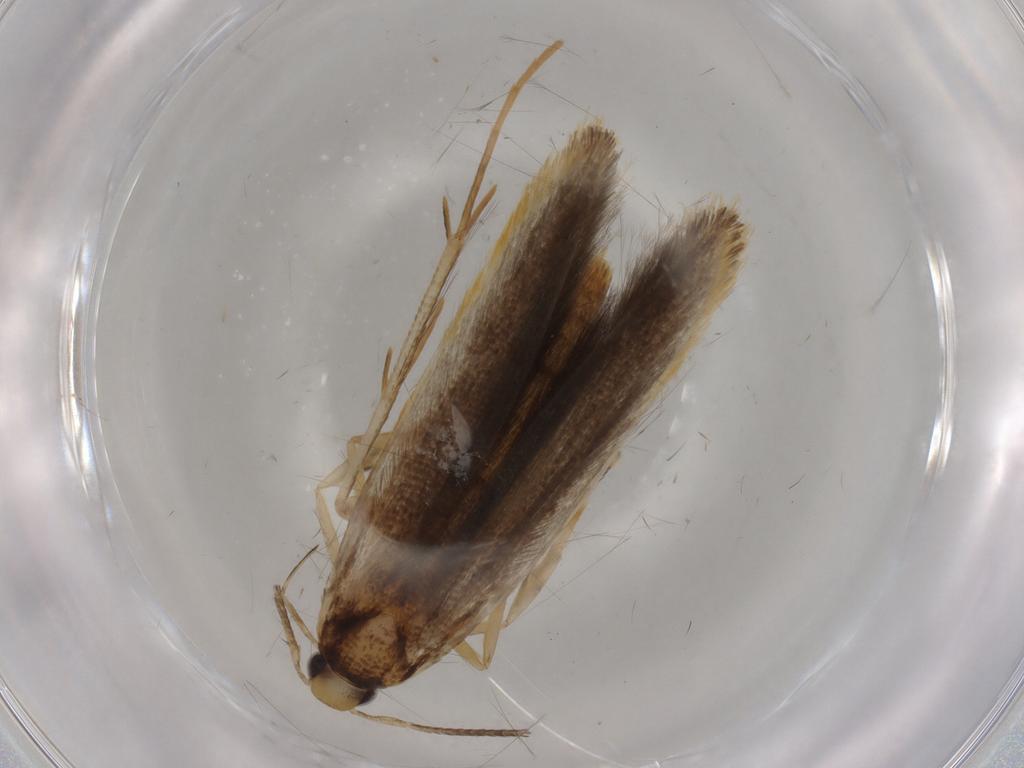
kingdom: Animalia
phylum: Arthropoda
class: Insecta
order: Lepidoptera
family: Pterolonchidae
